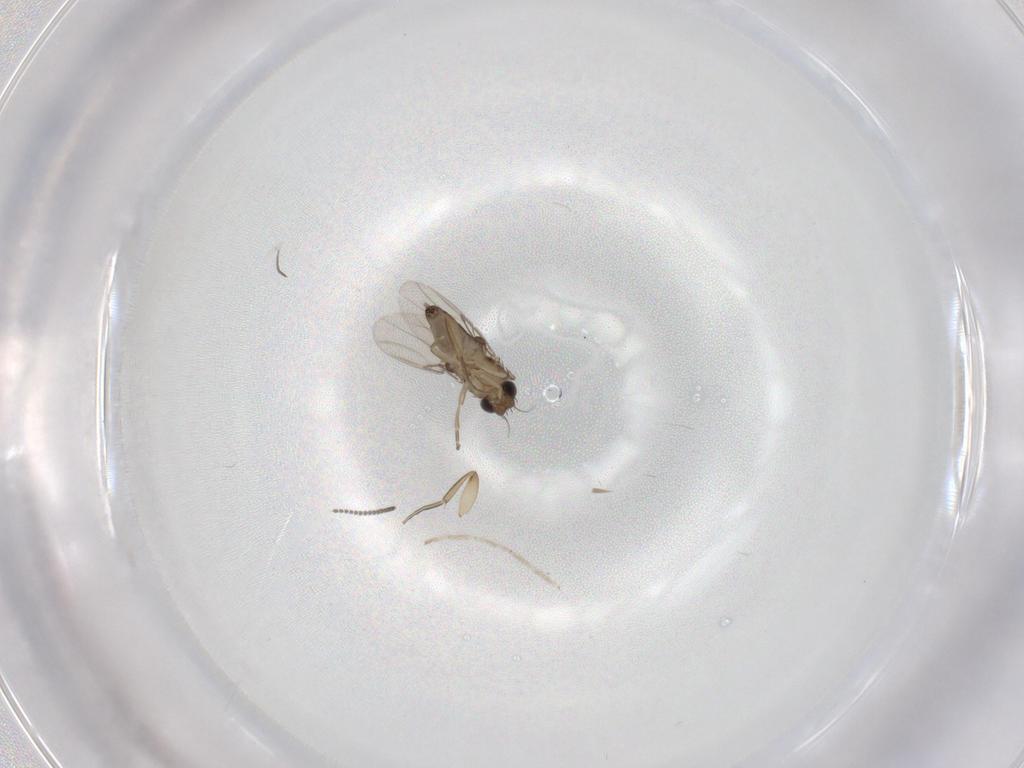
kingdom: Animalia
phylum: Arthropoda
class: Insecta
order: Diptera
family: Phoridae
